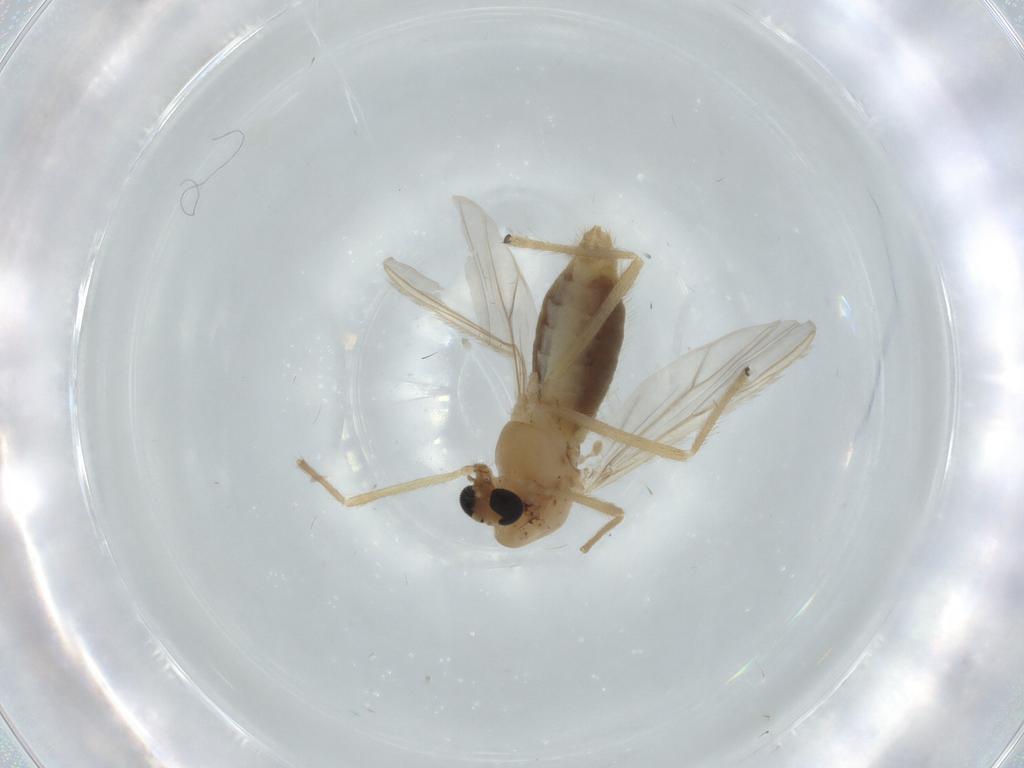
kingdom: Animalia
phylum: Arthropoda
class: Insecta
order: Diptera
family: Chironomidae
